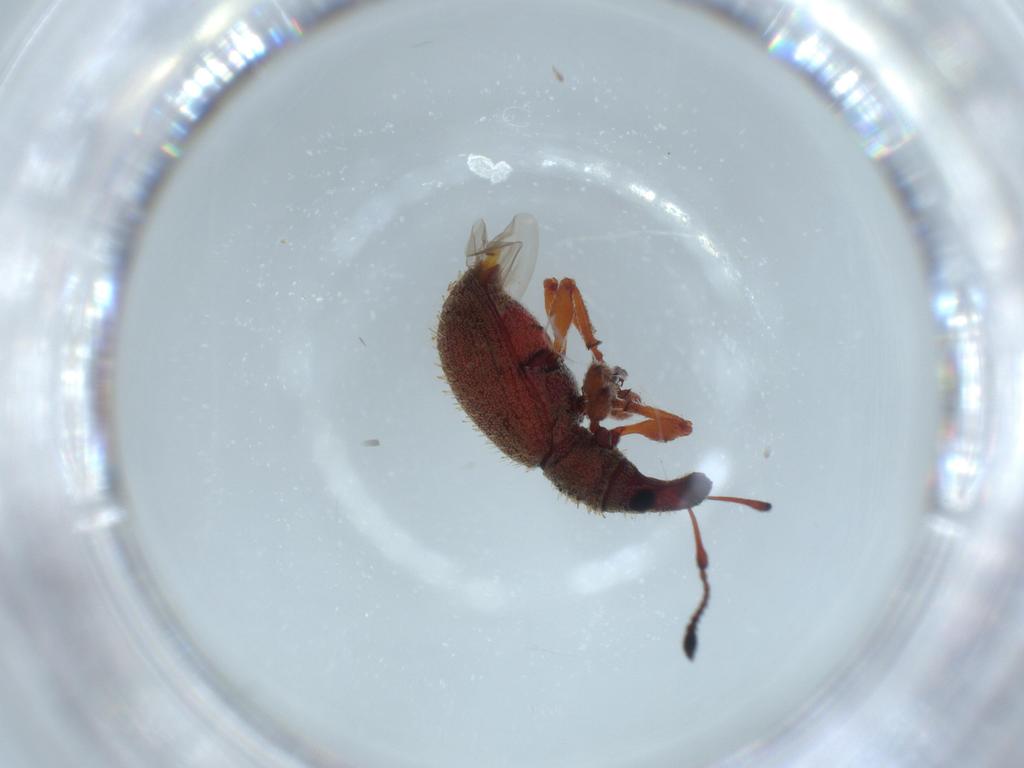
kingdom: Animalia
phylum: Arthropoda
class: Insecta
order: Coleoptera
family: Curculionidae
